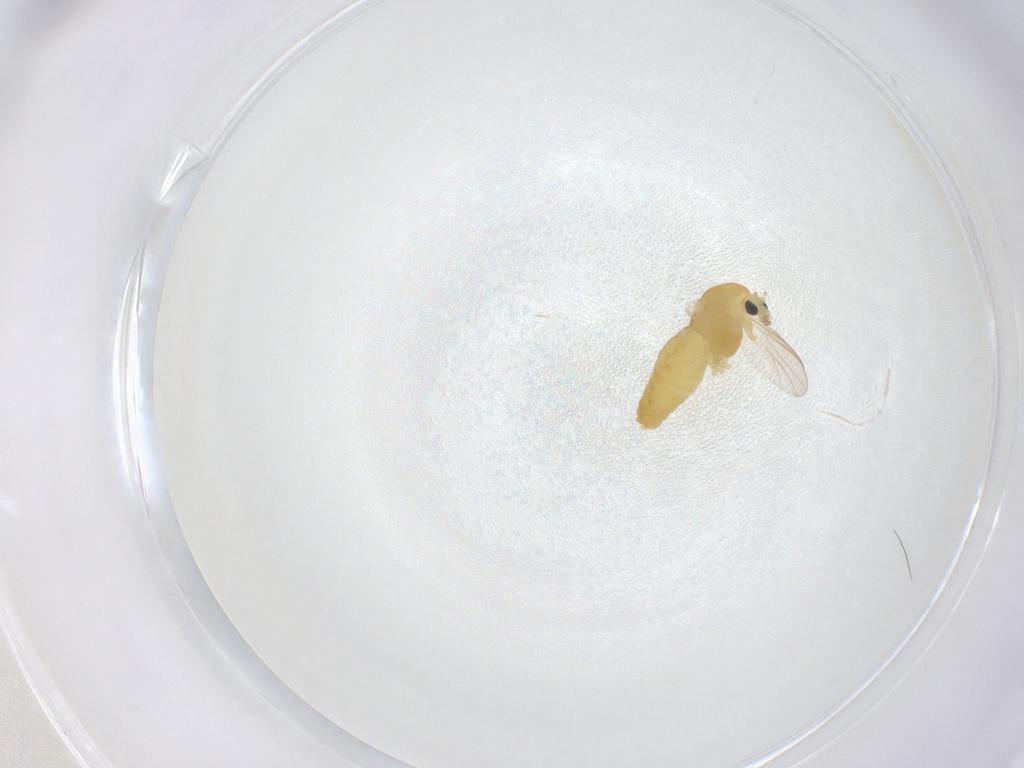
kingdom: Animalia
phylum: Arthropoda
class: Insecta
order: Diptera
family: Chironomidae
